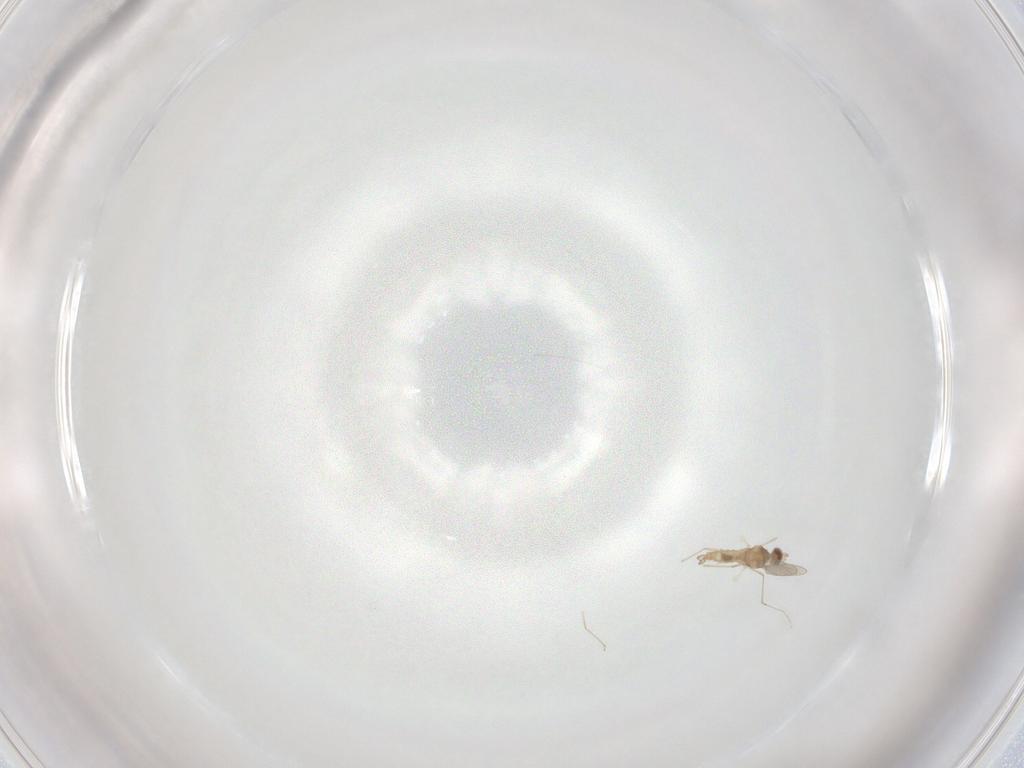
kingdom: Animalia
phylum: Arthropoda
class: Insecta
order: Diptera
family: Cecidomyiidae
